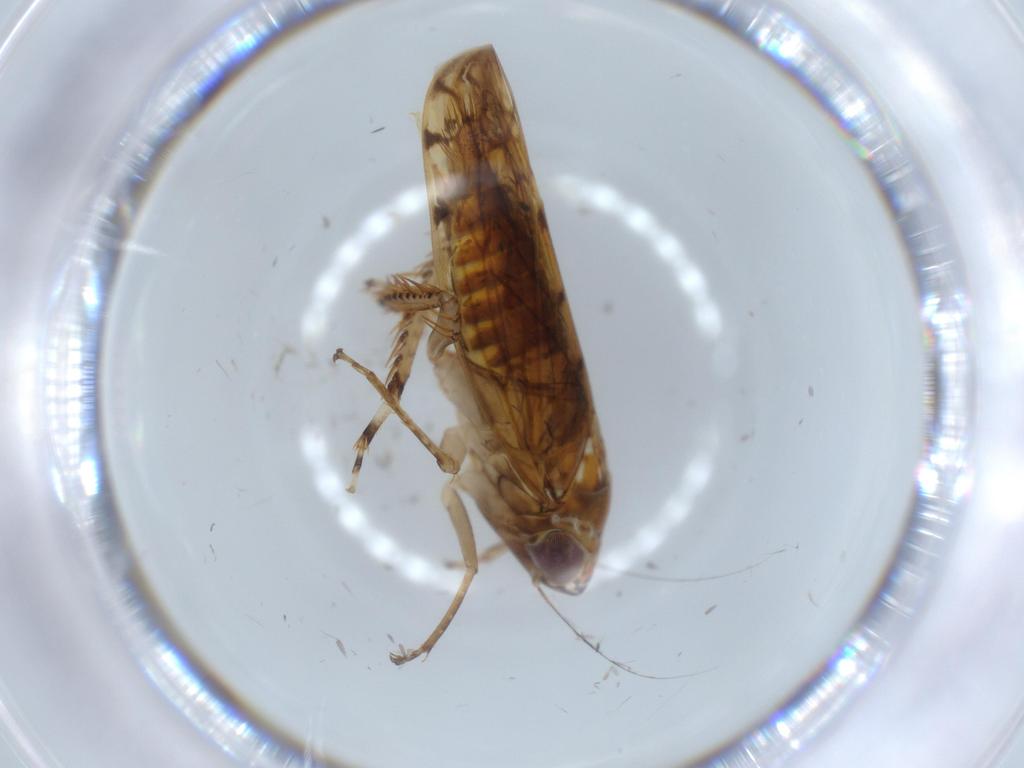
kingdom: Animalia
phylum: Arthropoda
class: Insecta
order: Hemiptera
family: Cicadellidae
